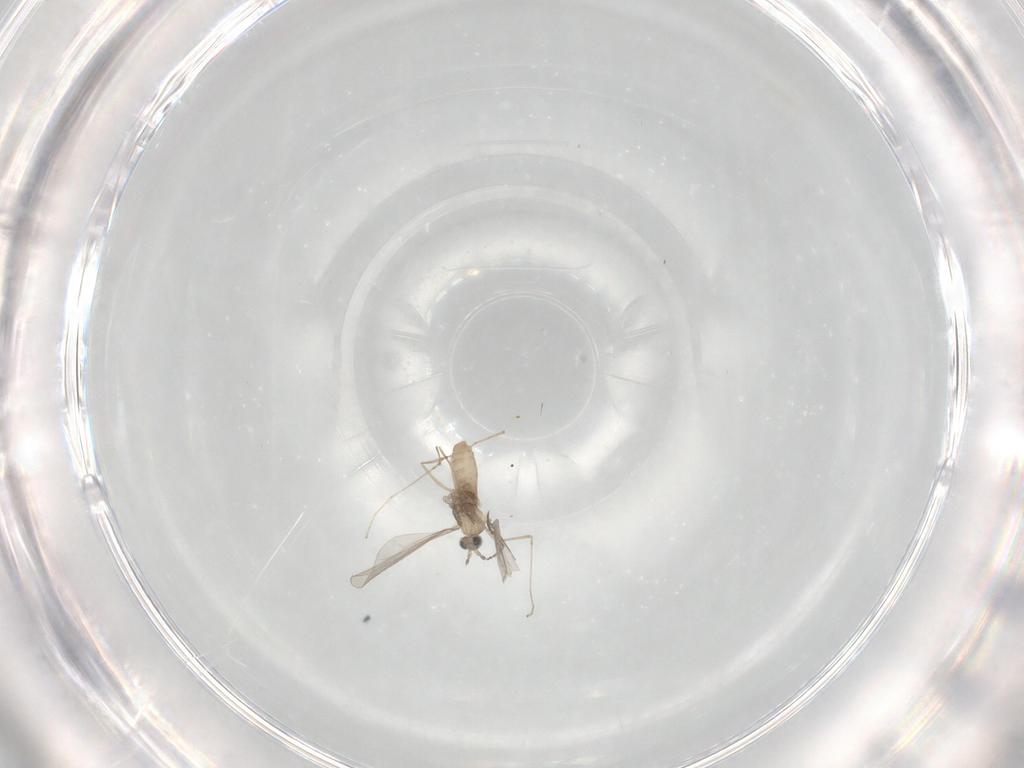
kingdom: Animalia
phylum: Arthropoda
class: Insecta
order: Diptera
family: Cecidomyiidae
